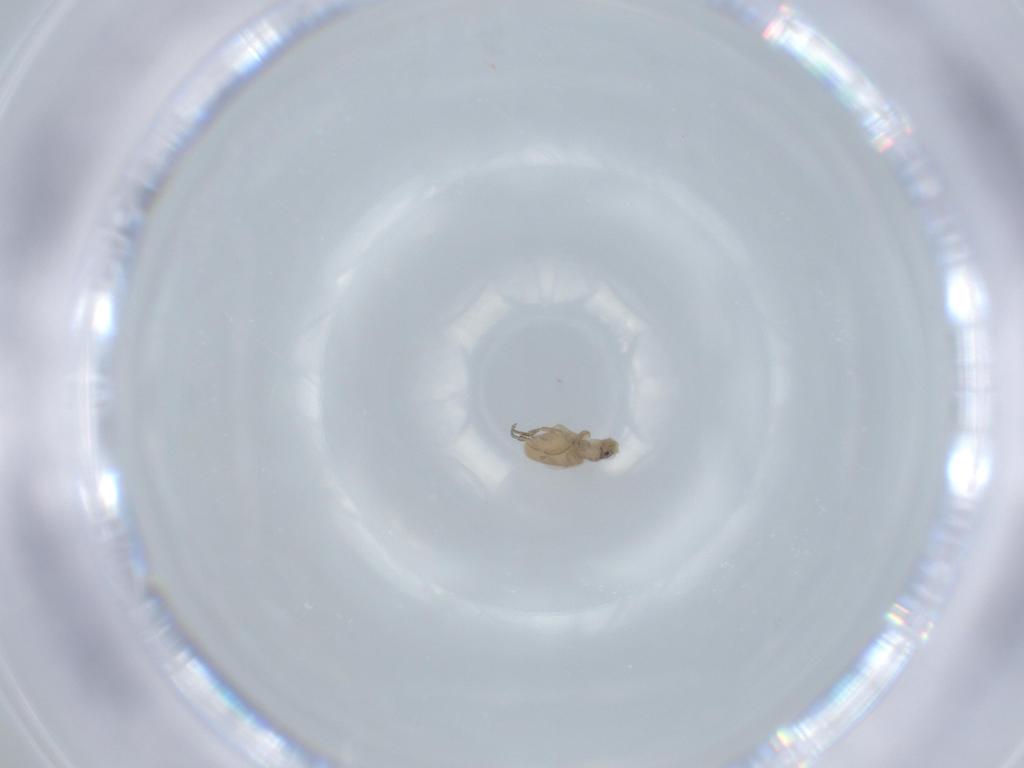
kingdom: Animalia
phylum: Arthropoda
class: Insecta
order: Diptera
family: Phoridae
